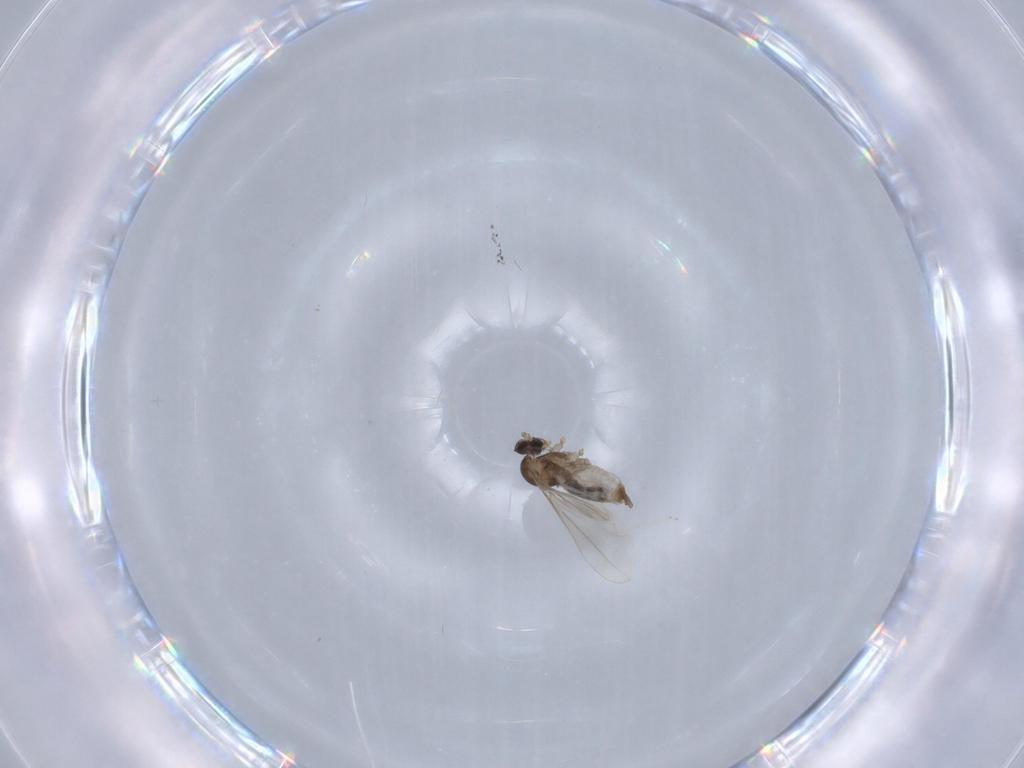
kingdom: Animalia
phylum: Arthropoda
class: Insecta
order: Diptera
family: Cecidomyiidae
